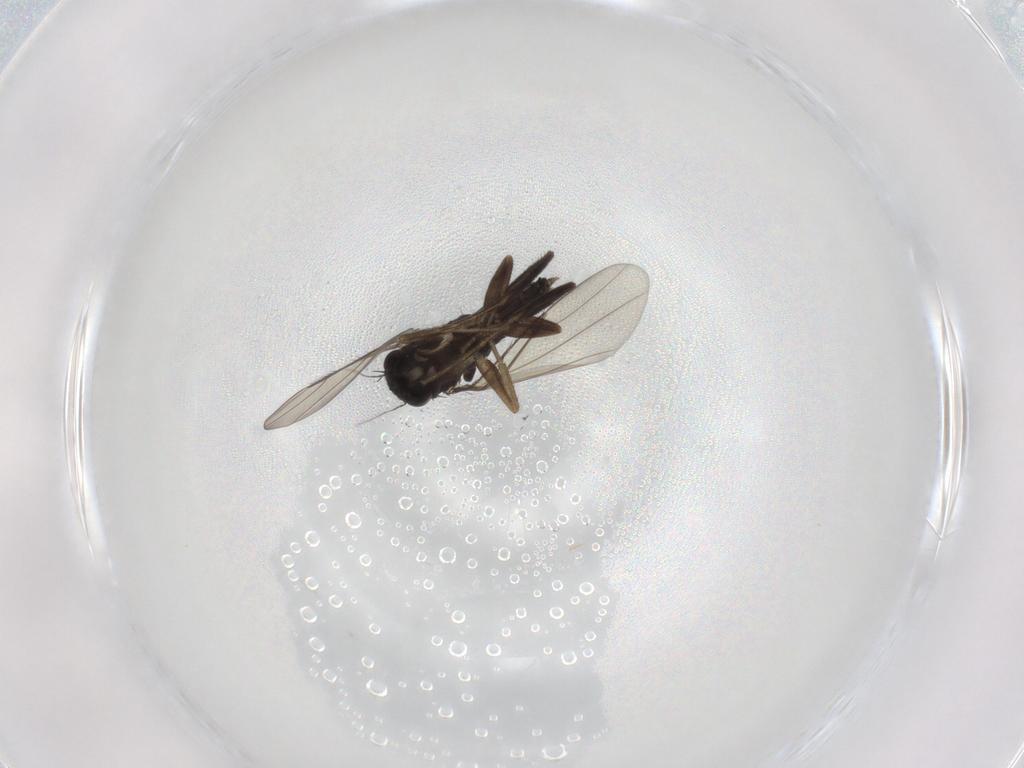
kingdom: Animalia
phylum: Arthropoda
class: Insecta
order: Diptera
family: Phoridae
